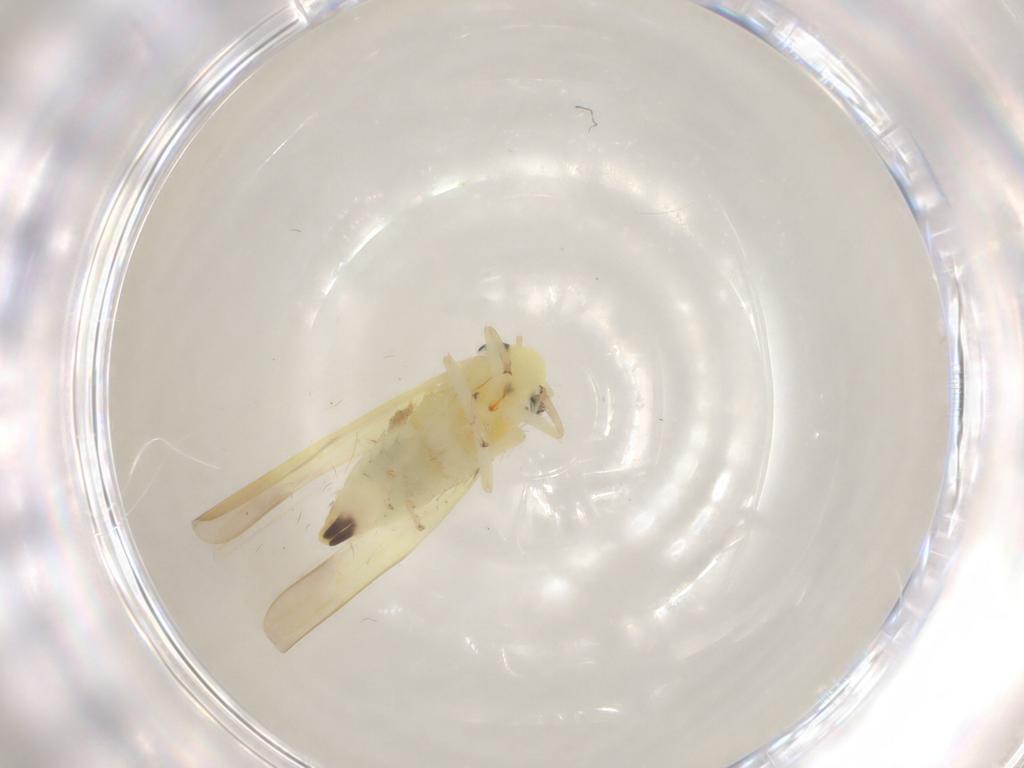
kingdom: Animalia
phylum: Arthropoda
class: Insecta
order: Hemiptera
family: Cicadellidae
